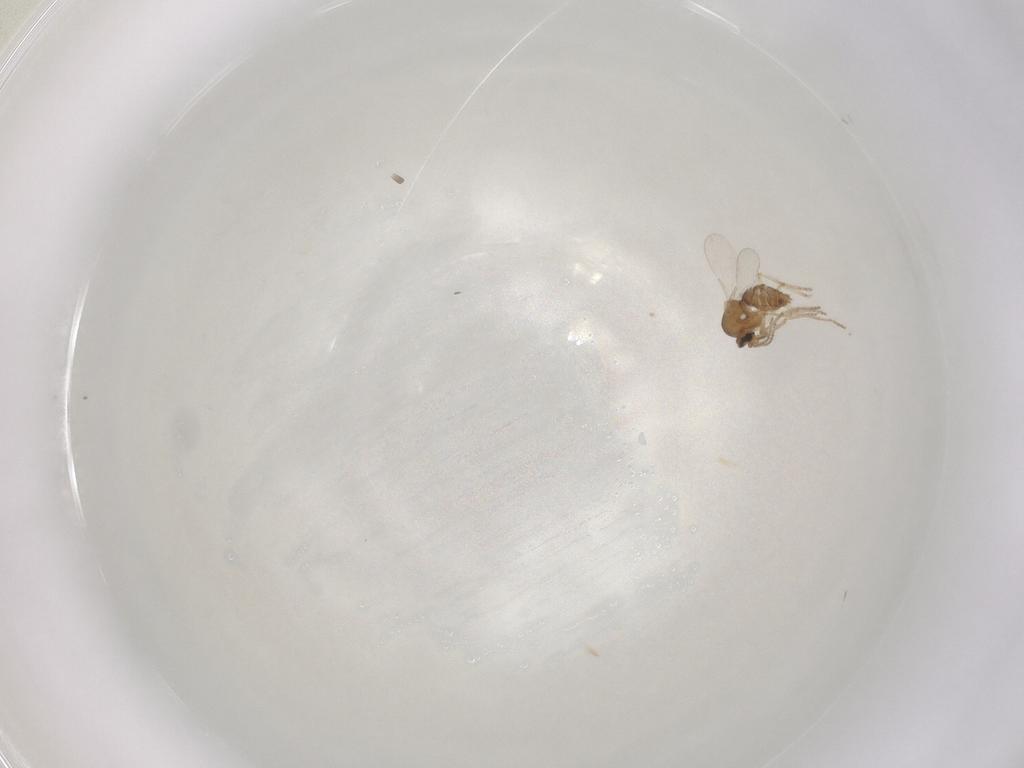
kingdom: Animalia
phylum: Arthropoda
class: Insecta
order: Diptera
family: Ceratopogonidae
